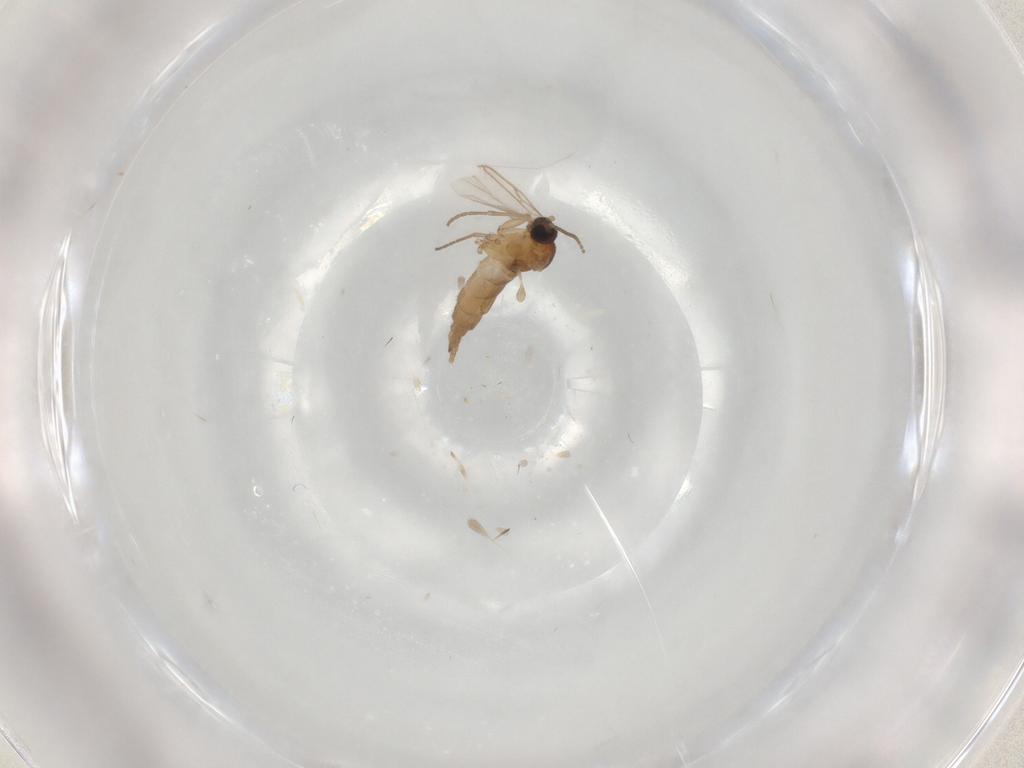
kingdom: Animalia
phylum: Arthropoda
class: Insecta
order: Diptera
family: Sciaridae
